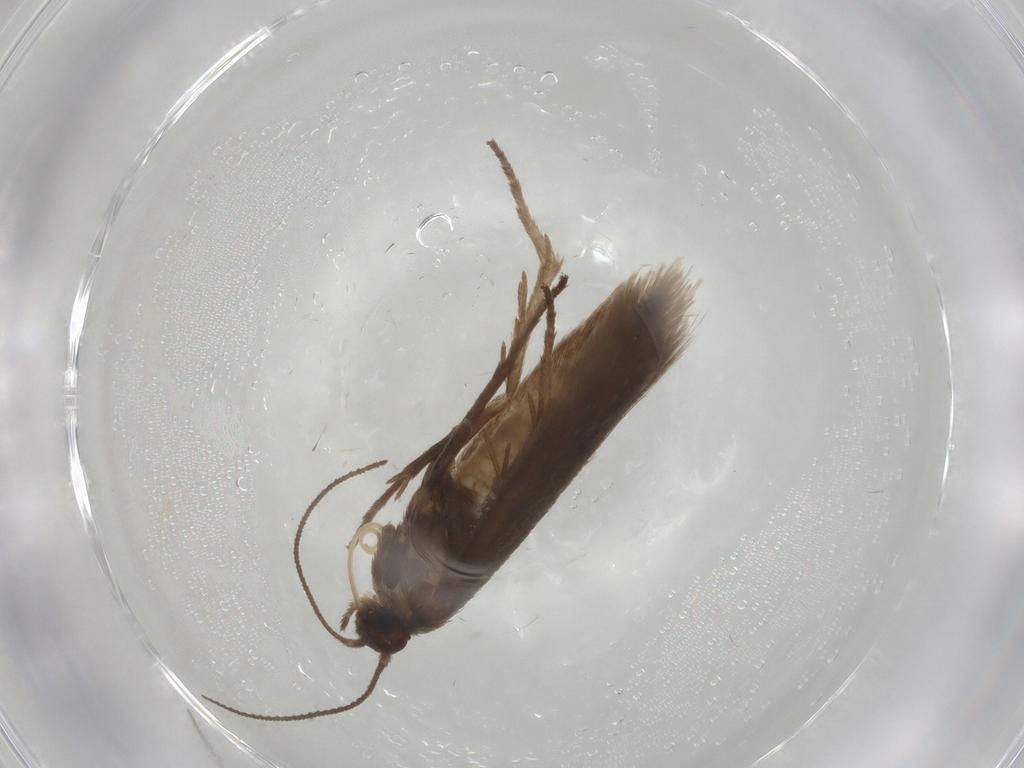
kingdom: Animalia
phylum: Arthropoda
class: Insecta
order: Lepidoptera
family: Limacodidae
